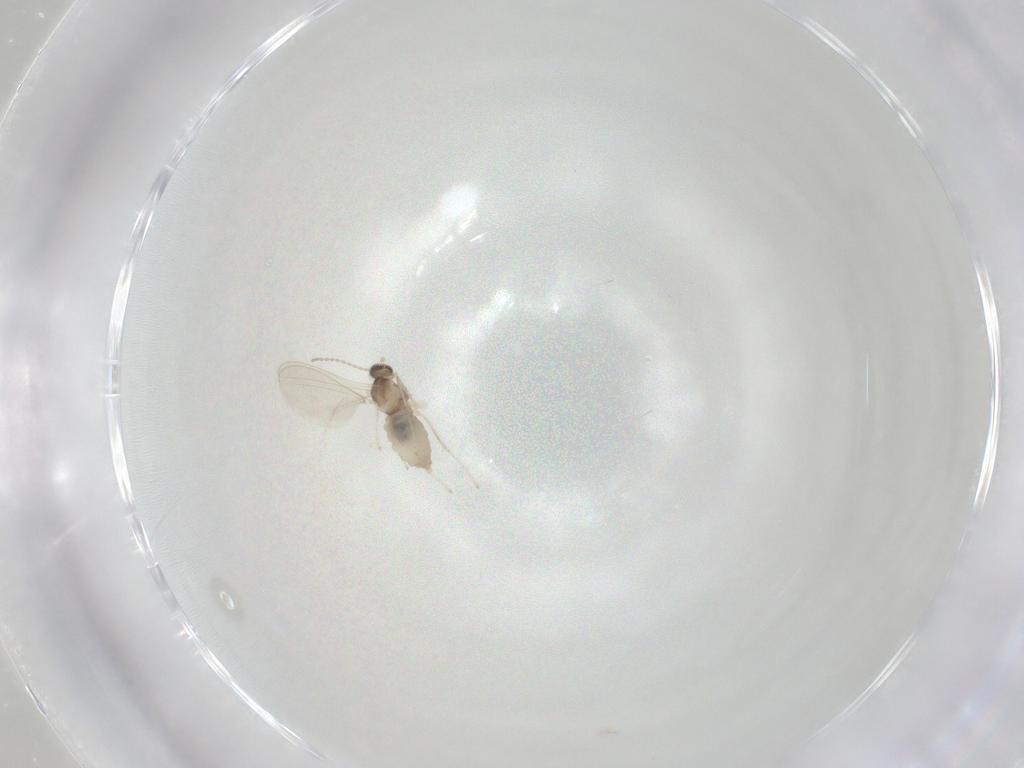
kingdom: Animalia
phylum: Arthropoda
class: Insecta
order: Diptera
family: Cecidomyiidae
